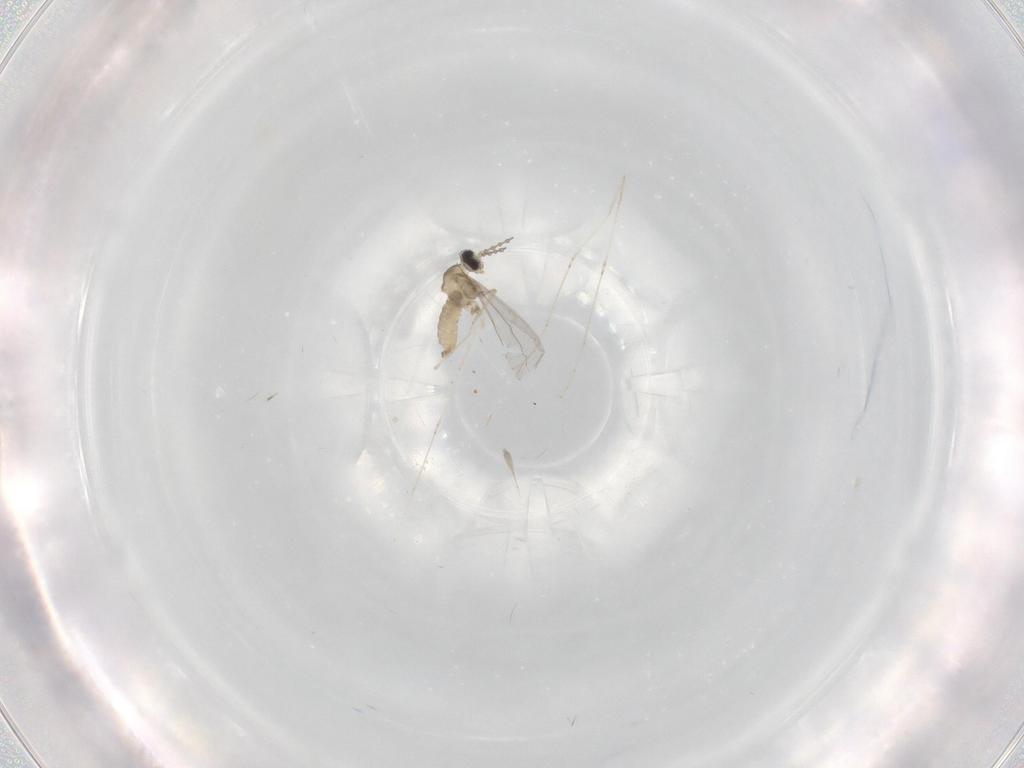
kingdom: Animalia
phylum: Arthropoda
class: Insecta
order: Diptera
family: Cecidomyiidae
